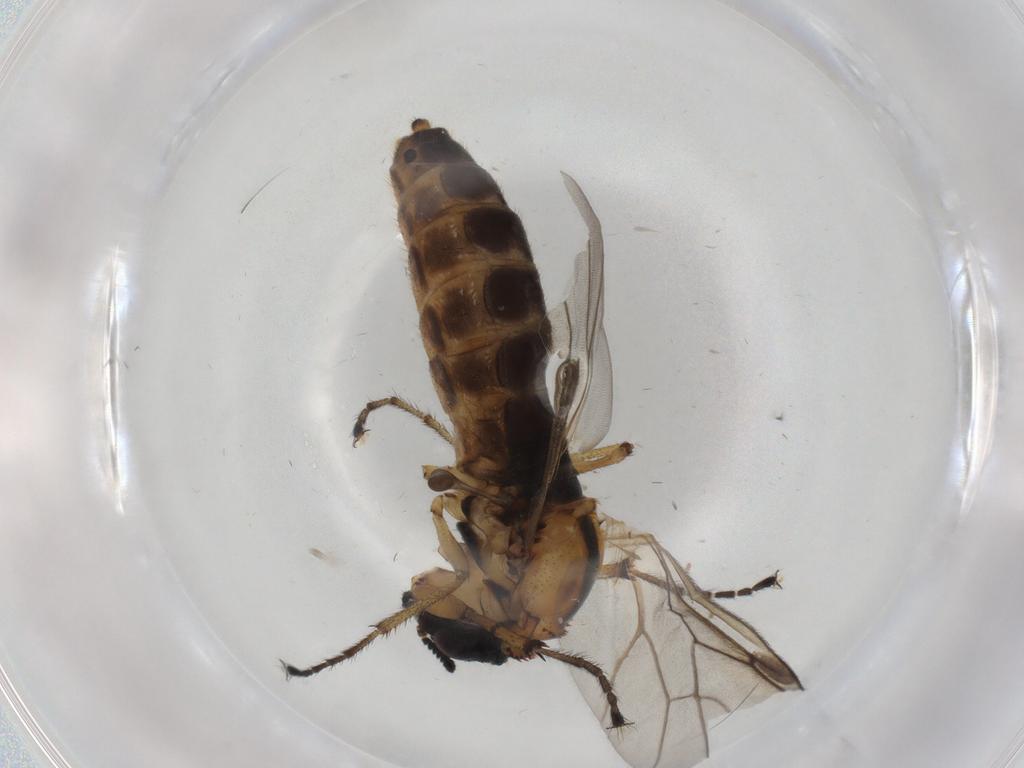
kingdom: Animalia
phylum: Arthropoda
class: Insecta
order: Diptera
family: Bibionidae
